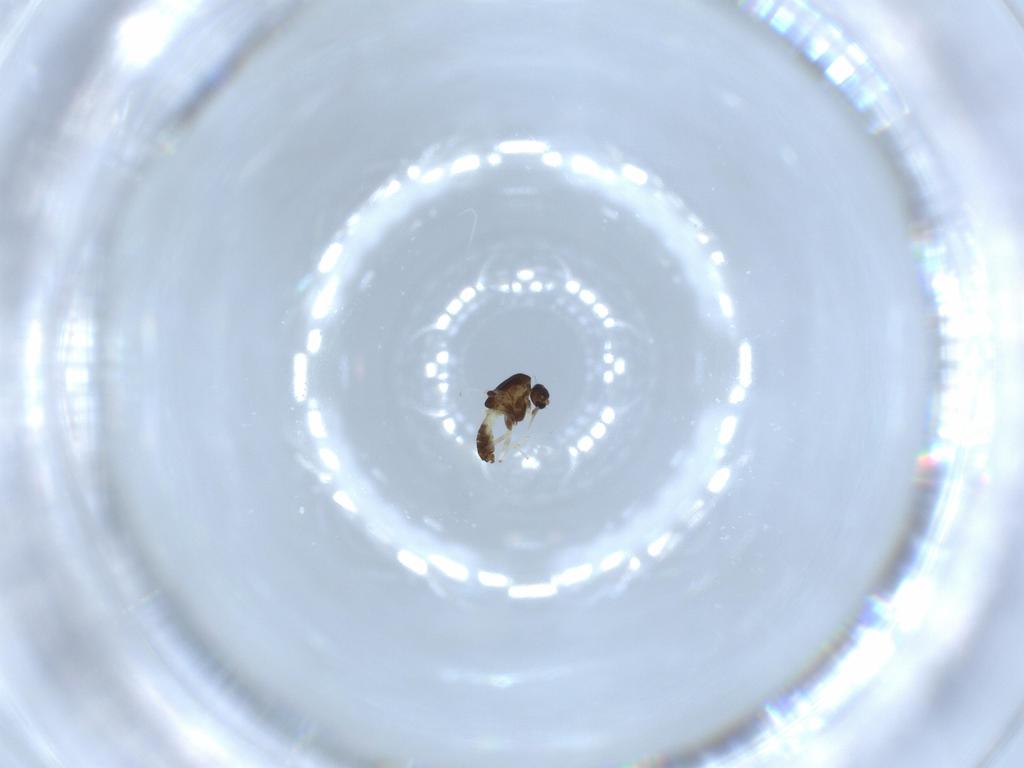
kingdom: Animalia
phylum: Arthropoda
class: Insecta
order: Diptera
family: Chironomidae
